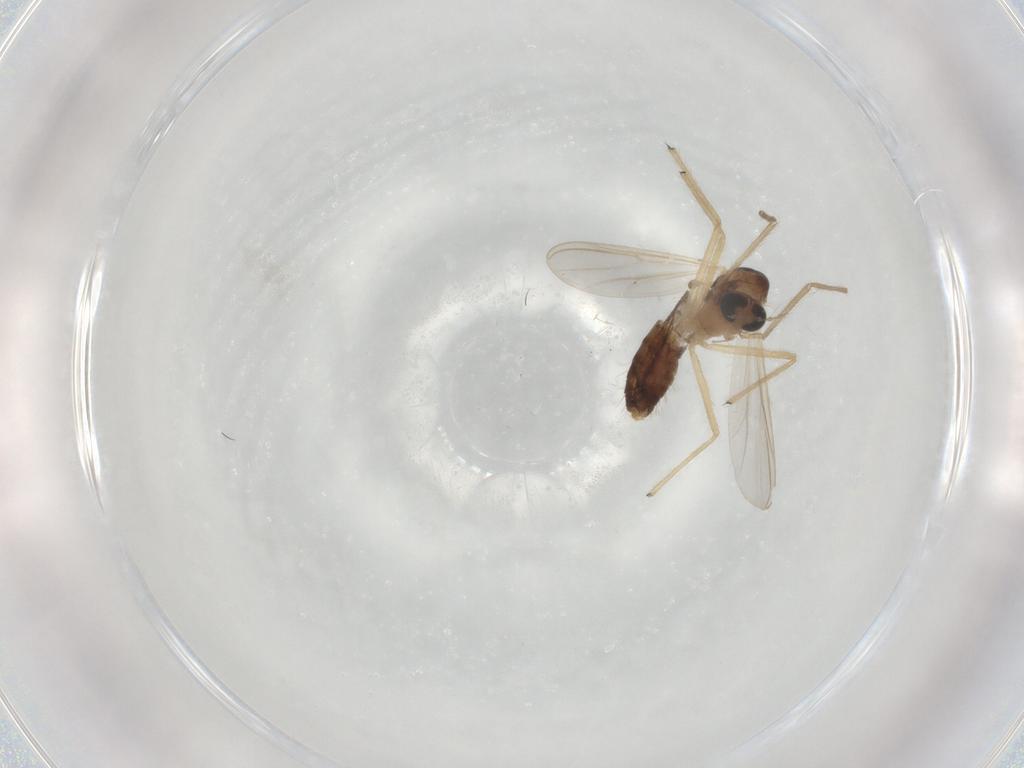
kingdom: Animalia
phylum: Arthropoda
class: Insecta
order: Diptera
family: Chironomidae
